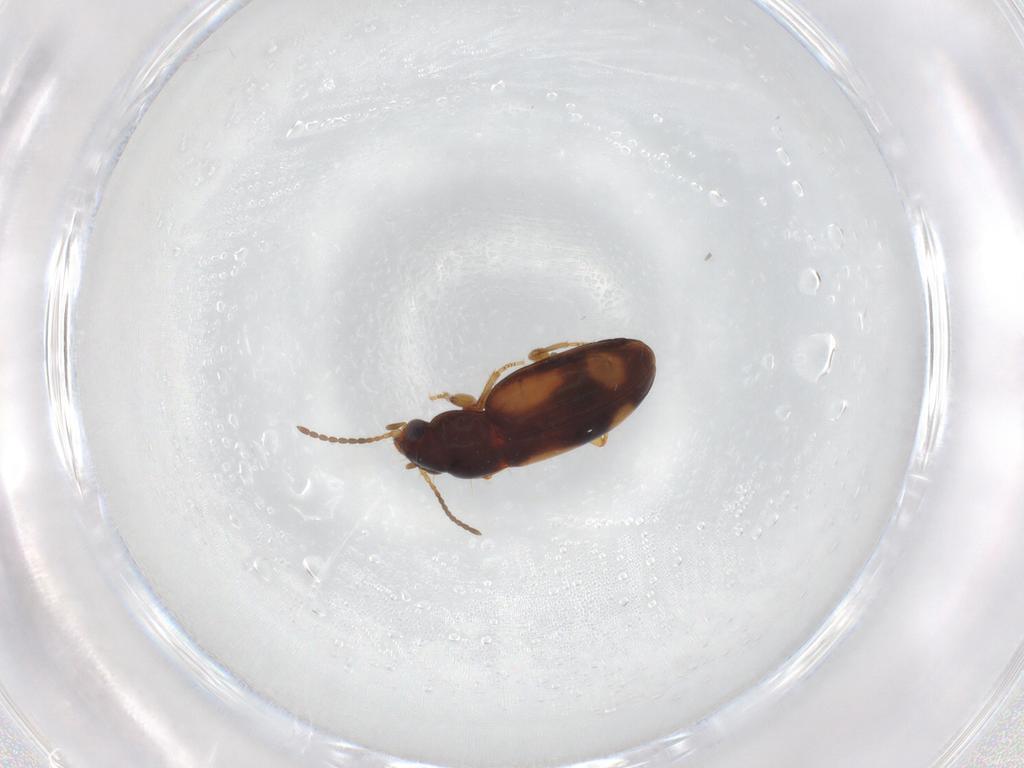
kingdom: Animalia
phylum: Arthropoda
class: Insecta
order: Coleoptera
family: Carabidae
